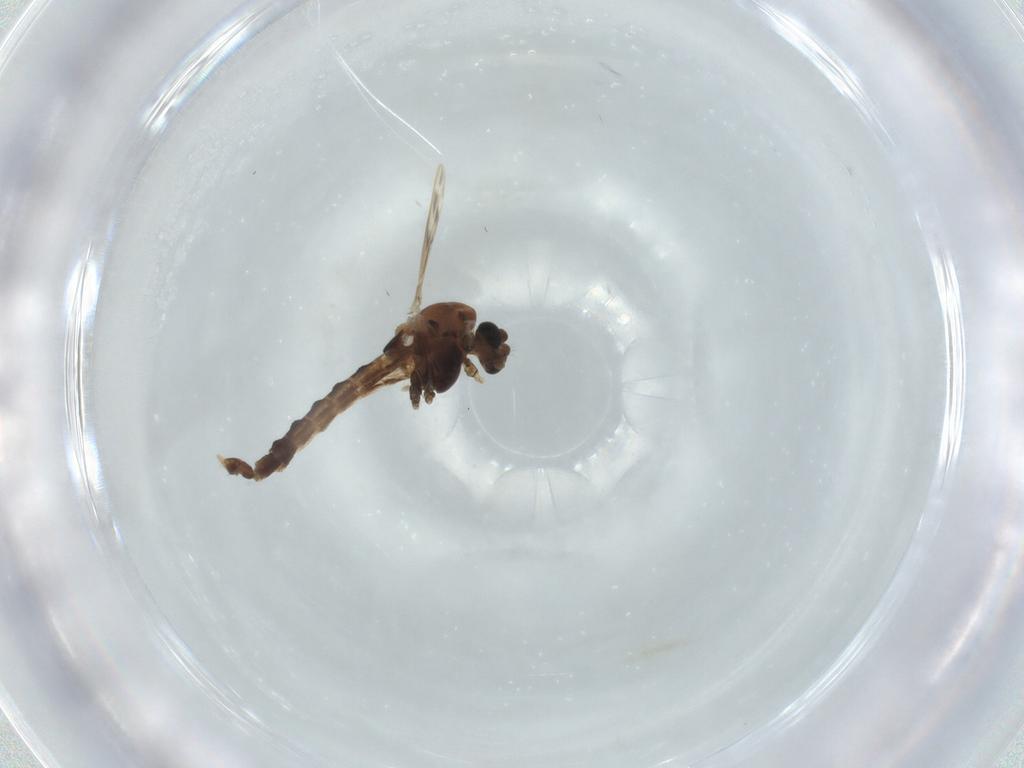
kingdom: Animalia
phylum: Arthropoda
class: Insecta
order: Diptera
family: Chironomidae
